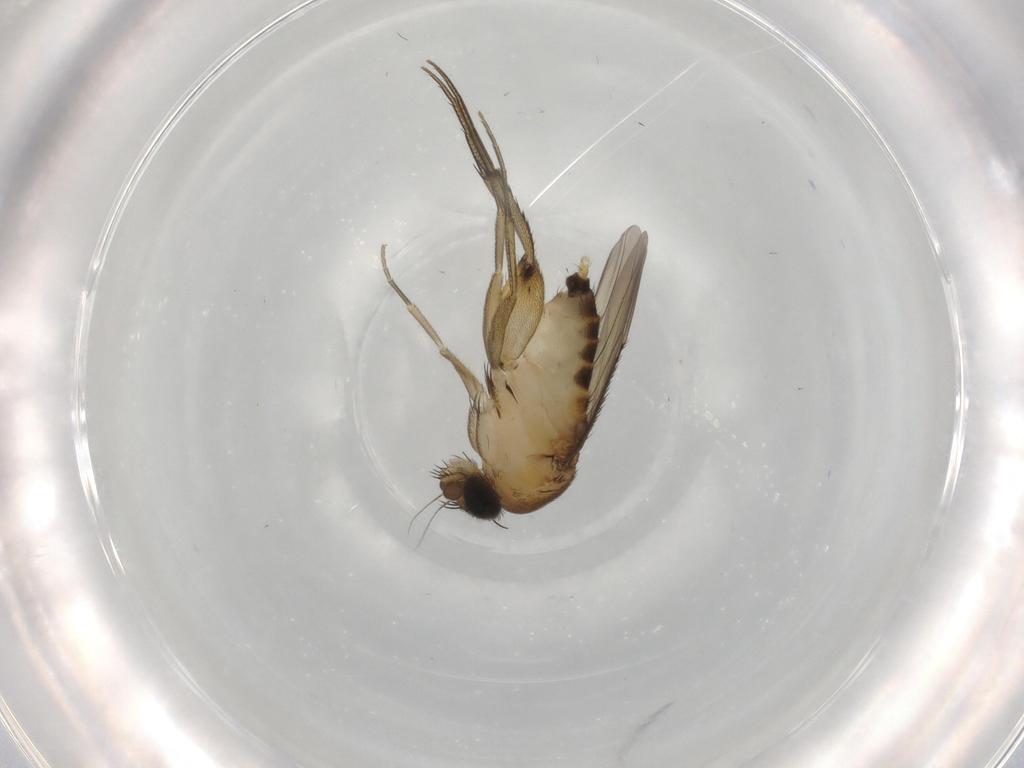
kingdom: Animalia
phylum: Arthropoda
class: Insecta
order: Diptera
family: Phoridae
